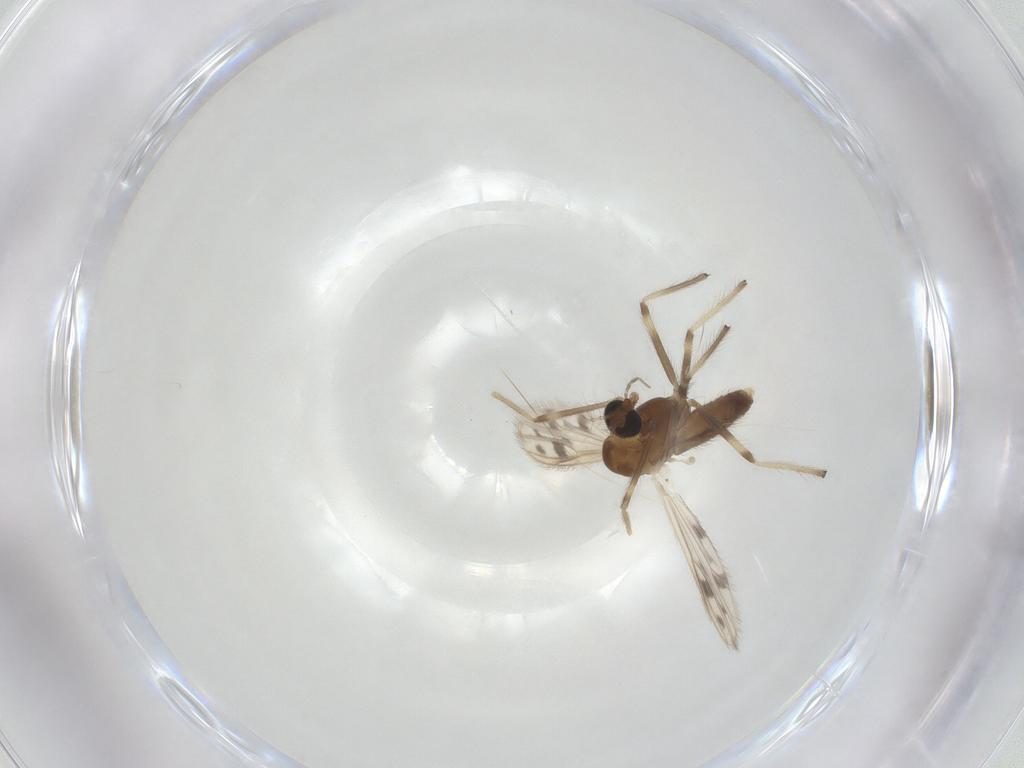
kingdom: Animalia
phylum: Arthropoda
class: Insecta
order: Diptera
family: Chironomidae
